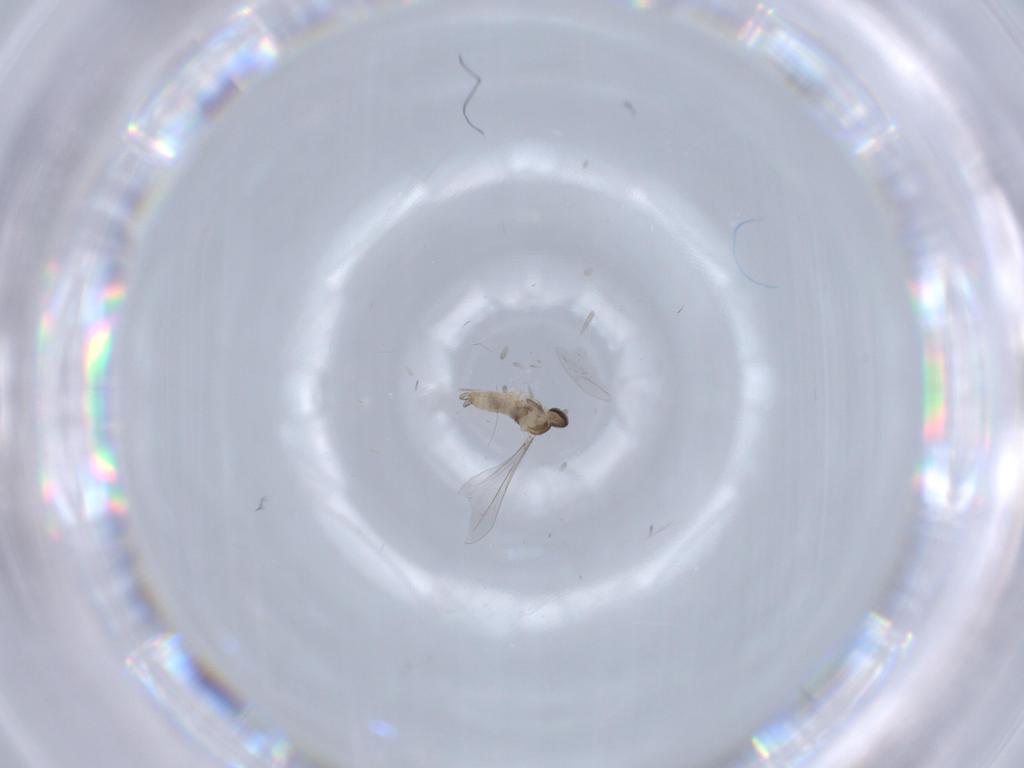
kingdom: Animalia
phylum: Arthropoda
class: Insecta
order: Diptera
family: Cecidomyiidae
